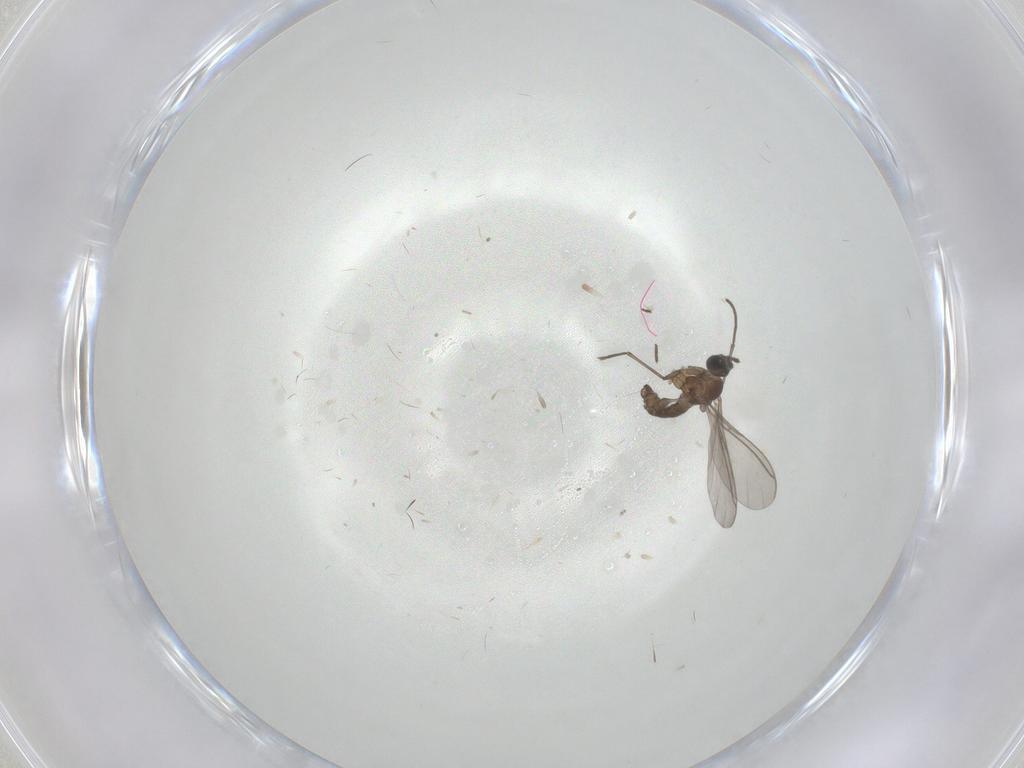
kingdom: Animalia
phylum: Arthropoda
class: Insecta
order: Diptera
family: Sciaridae
